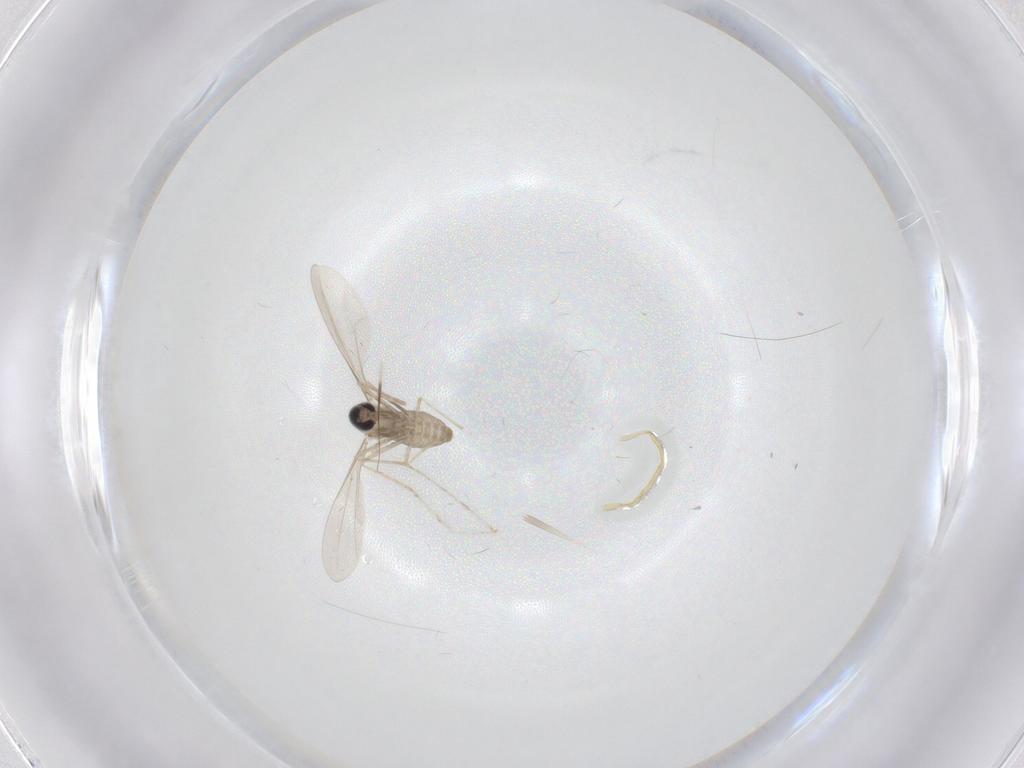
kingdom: Animalia
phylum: Arthropoda
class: Insecta
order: Diptera
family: Cecidomyiidae
